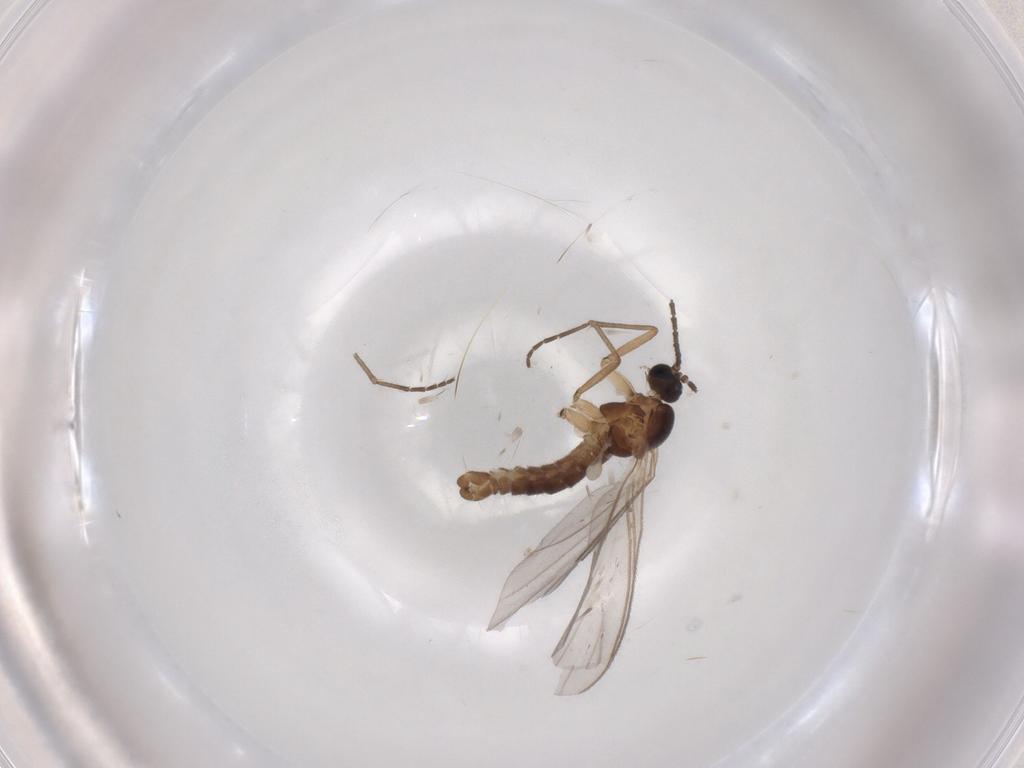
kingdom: Animalia
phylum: Arthropoda
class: Insecta
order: Diptera
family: Sciaridae
